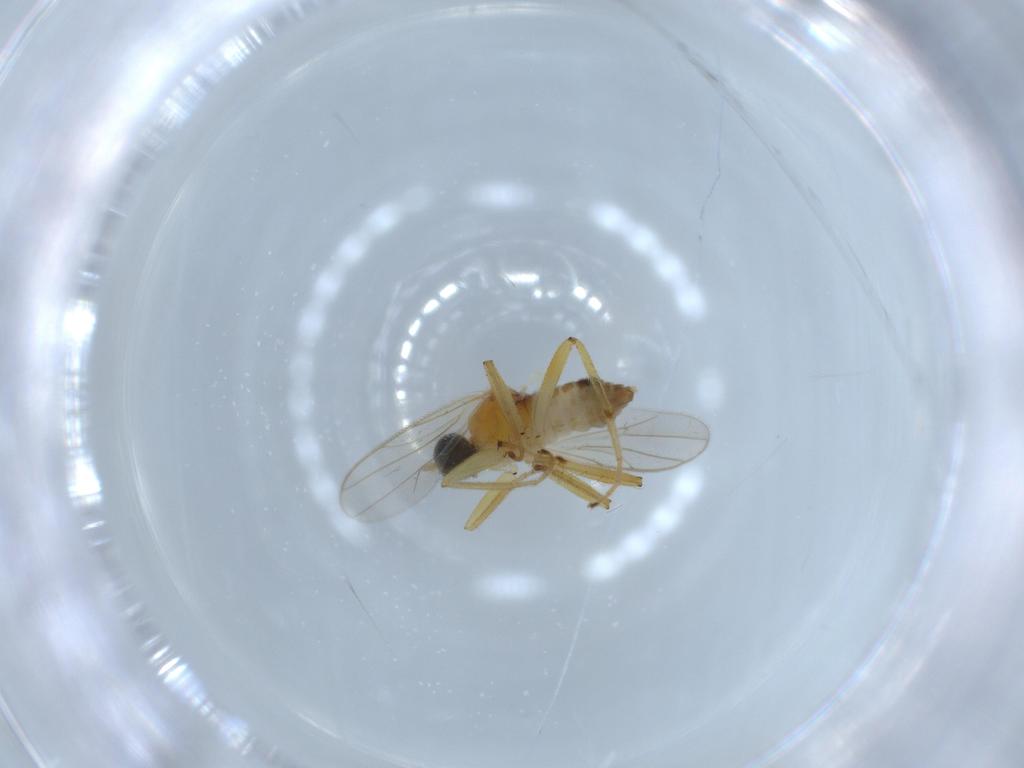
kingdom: Animalia
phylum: Arthropoda
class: Insecta
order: Diptera
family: Hybotidae
